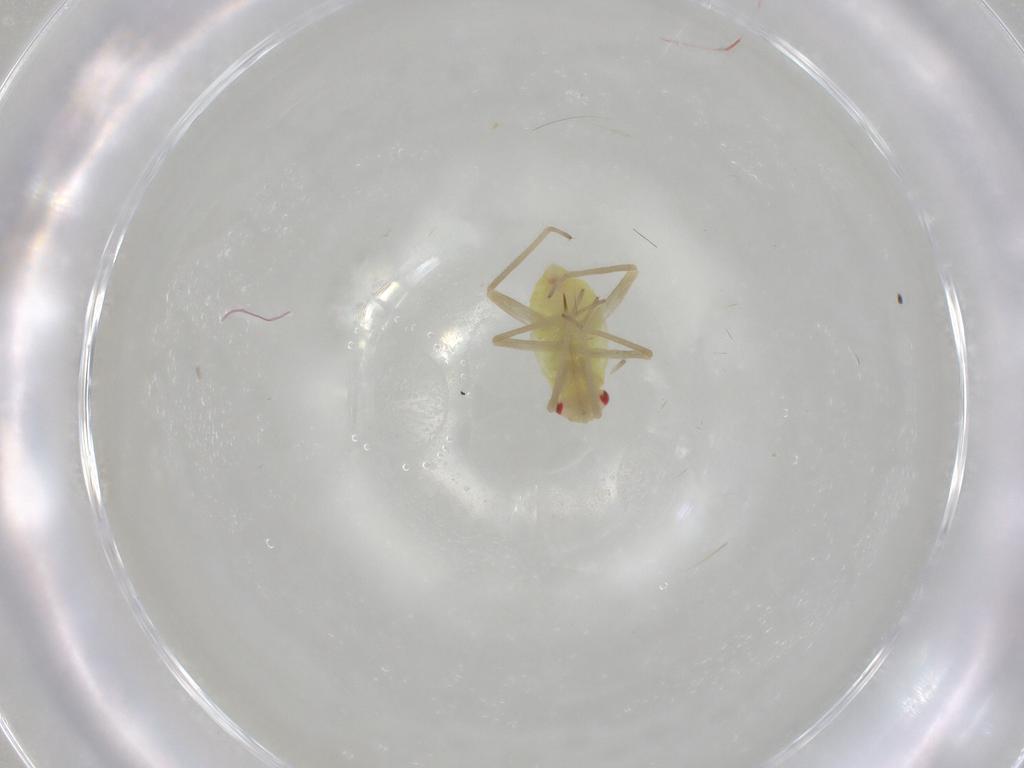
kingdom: Animalia
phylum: Arthropoda
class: Insecta
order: Hemiptera
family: Miridae
